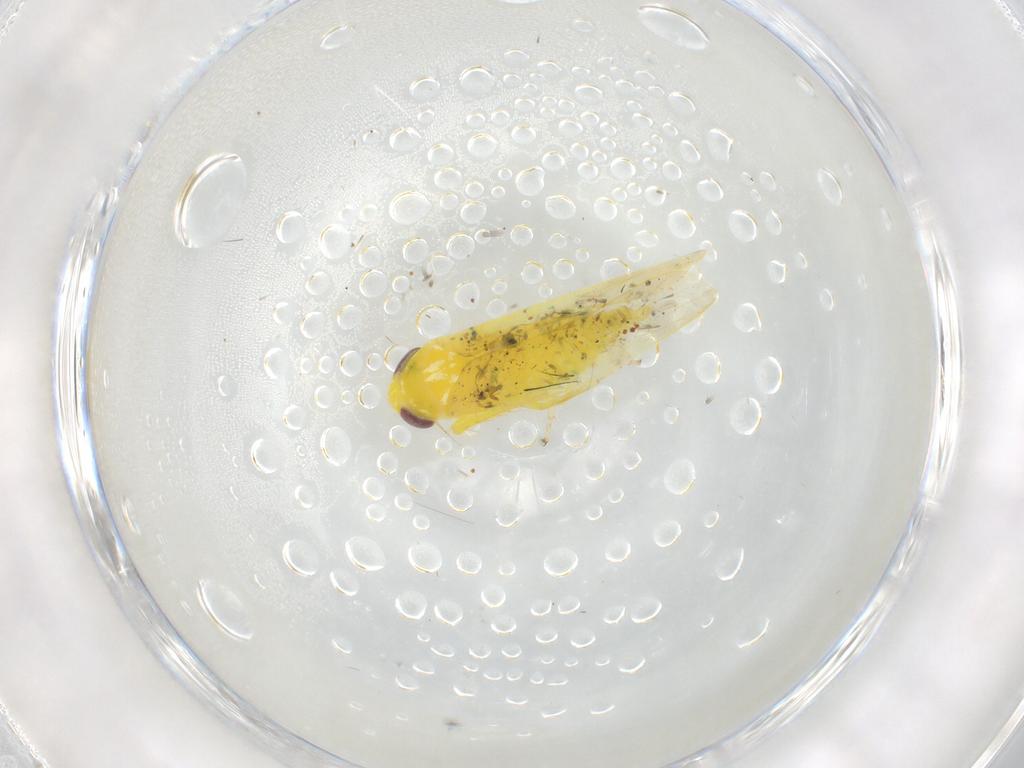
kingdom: Animalia
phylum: Arthropoda
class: Insecta
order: Hemiptera
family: Cicadellidae
